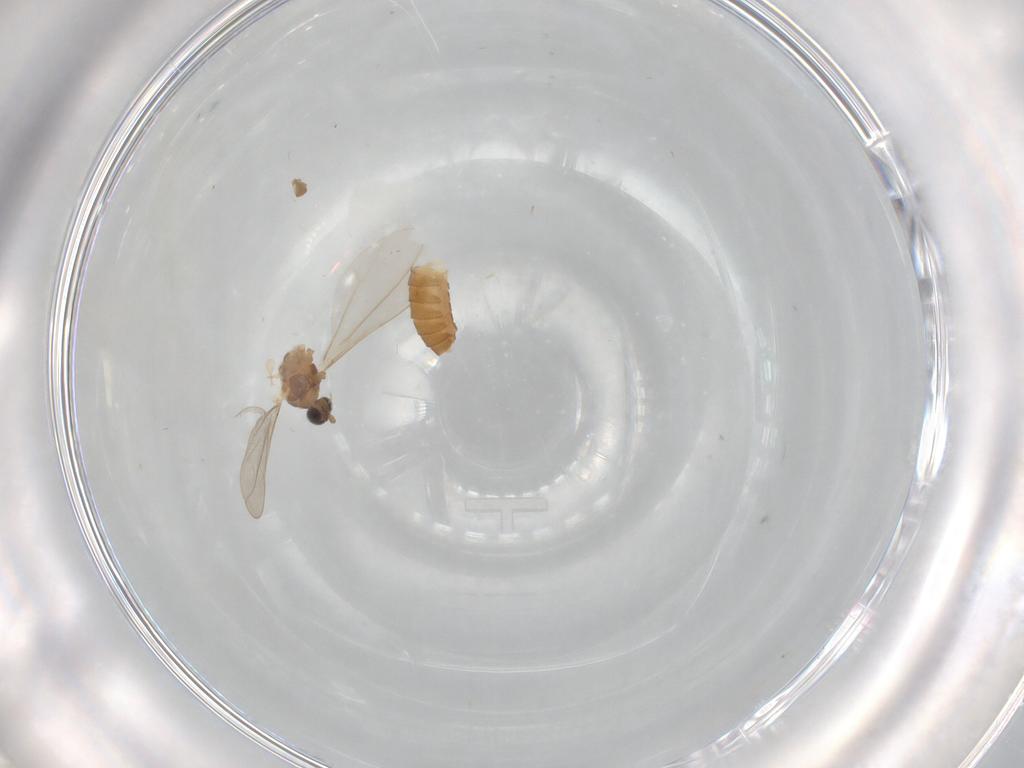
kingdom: Animalia
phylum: Arthropoda
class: Insecta
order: Diptera
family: Cecidomyiidae
